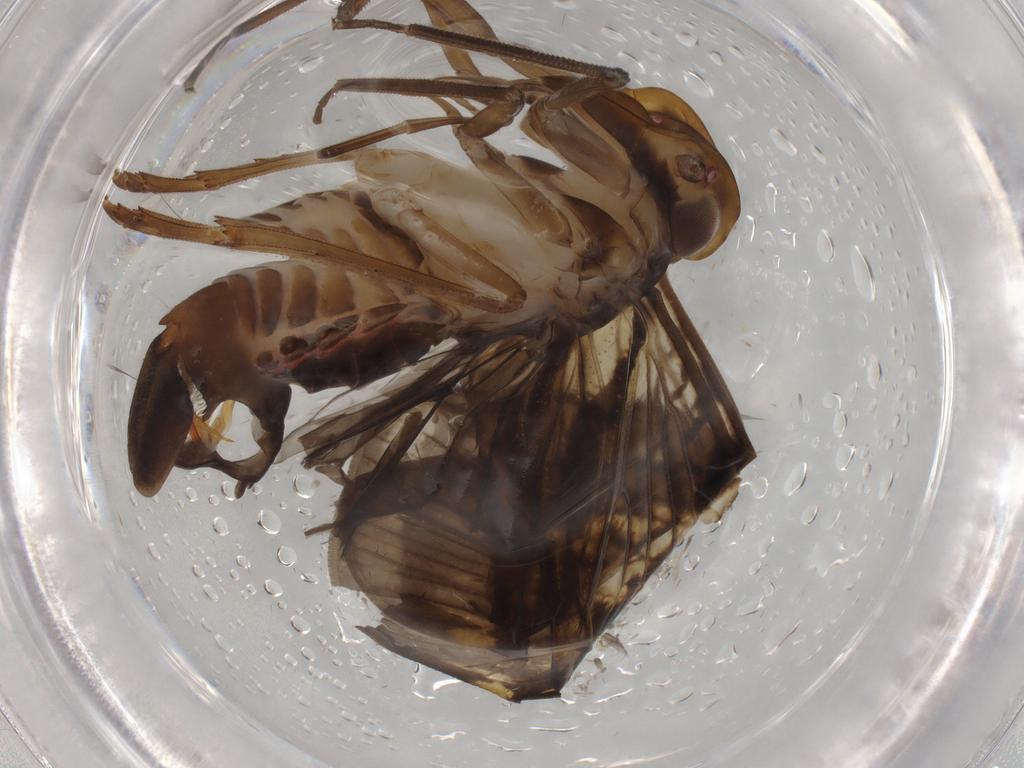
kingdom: Animalia
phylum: Arthropoda
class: Insecta
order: Hemiptera
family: Cixiidae
